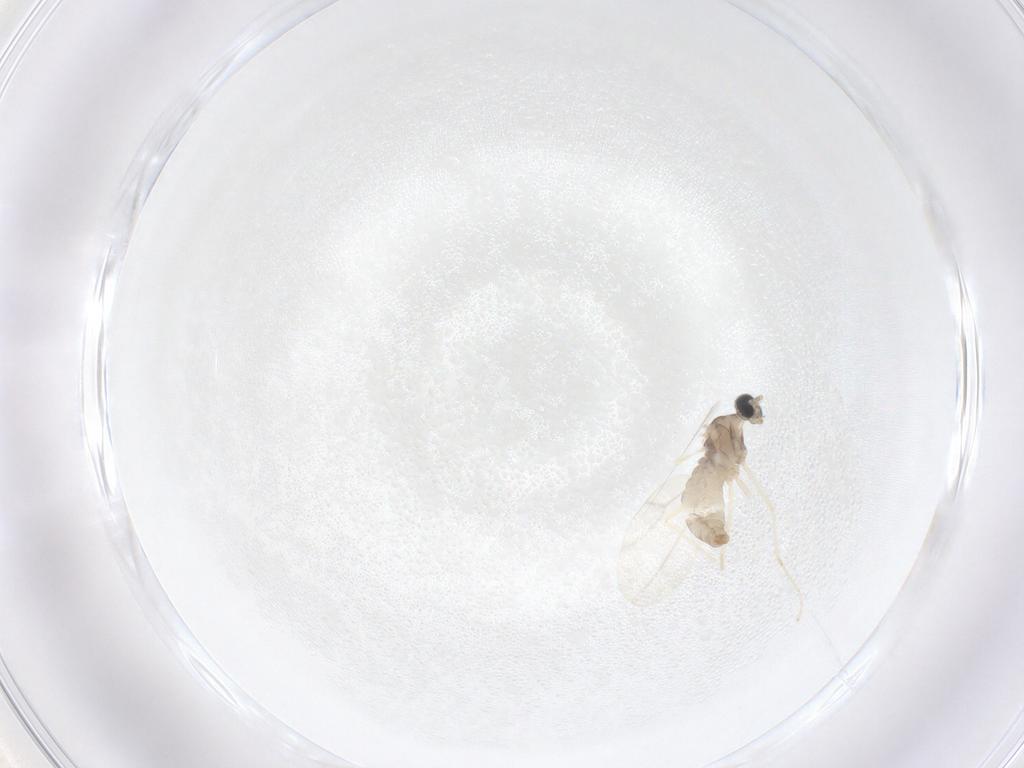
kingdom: Animalia
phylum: Arthropoda
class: Insecta
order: Diptera
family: Cecidomyiidae
